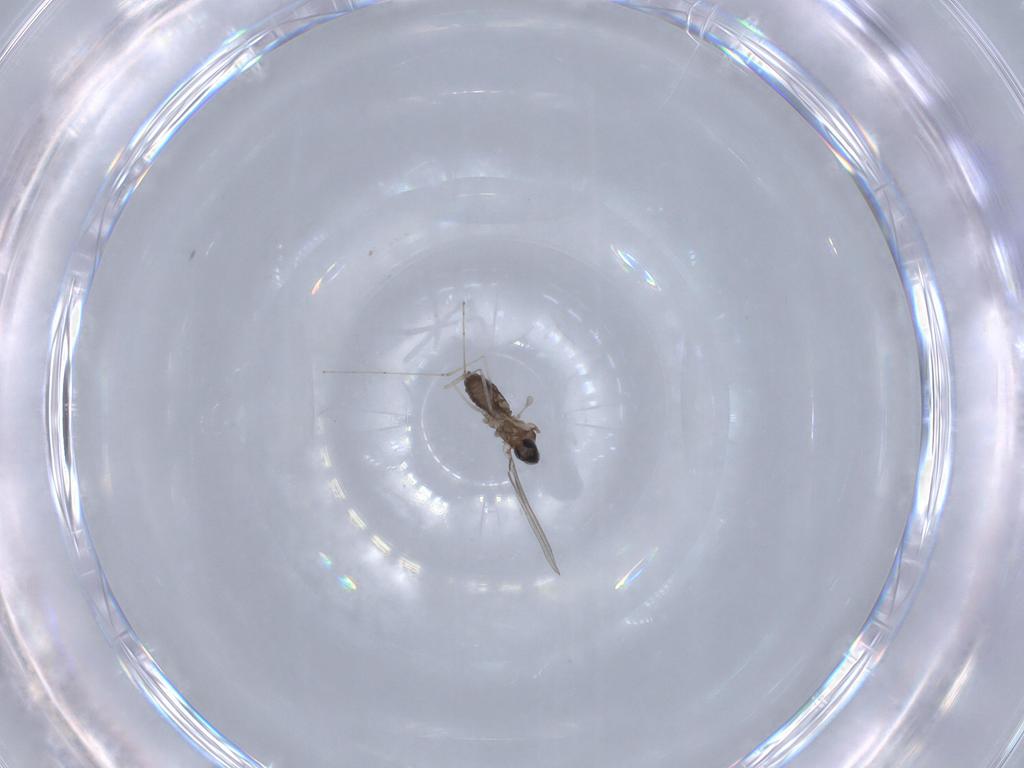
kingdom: Animalia
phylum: Arthropoda
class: Insecta
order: Diptera
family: Cecidomyiidae
